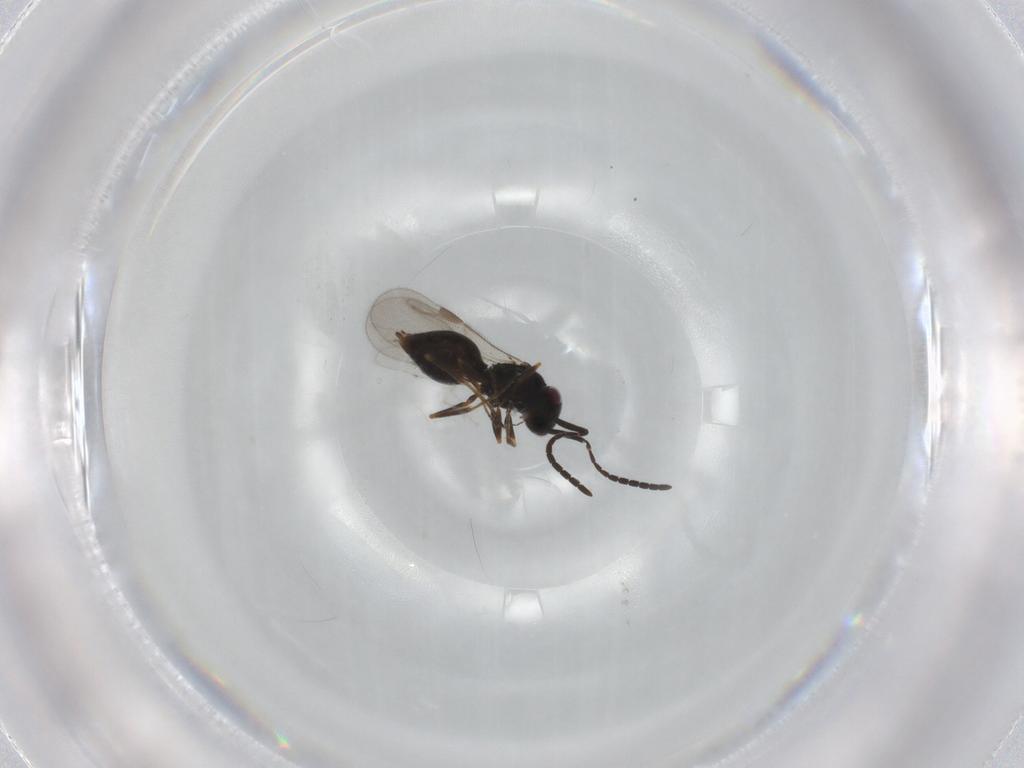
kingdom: Animalia
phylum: Arthropoda
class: Insecta
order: Hymenoptera
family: Megaspilidae
